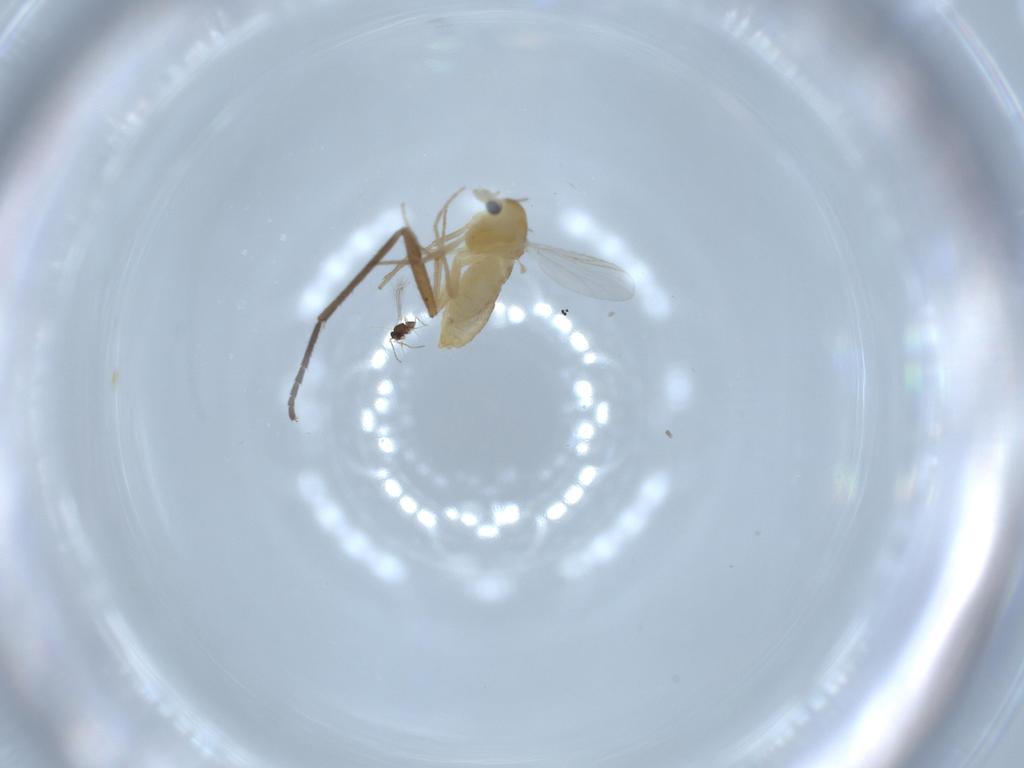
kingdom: Animalia
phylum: Arthropoda
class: Insecta
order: Diptera
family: Chironomidae
